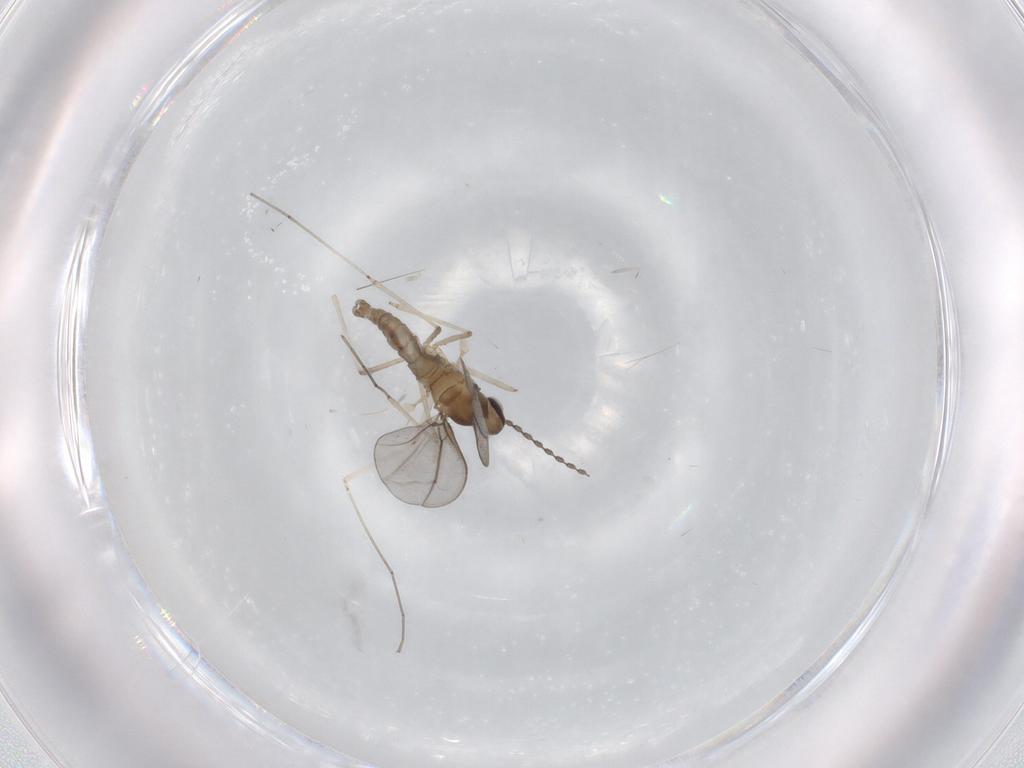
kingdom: Animalia
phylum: Arthropoda
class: Insecta
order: Diptera
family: Cecidomyiidae
